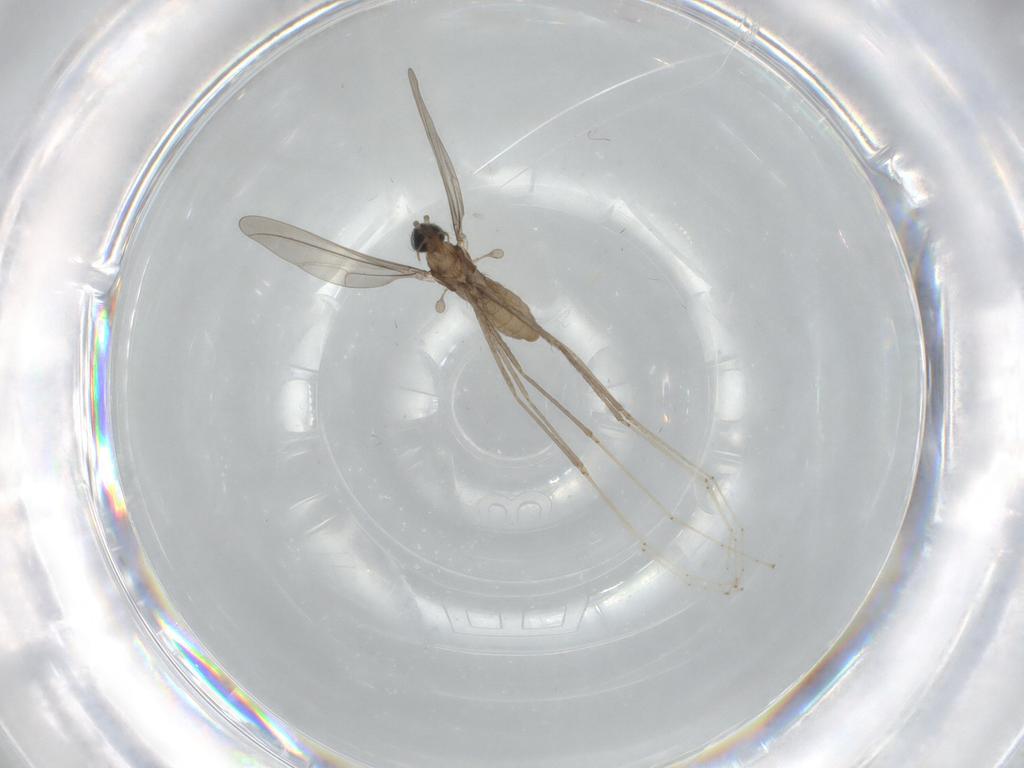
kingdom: Animalia
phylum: Arthropoda
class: Insecta
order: Diptera
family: Cecidomyiidae
